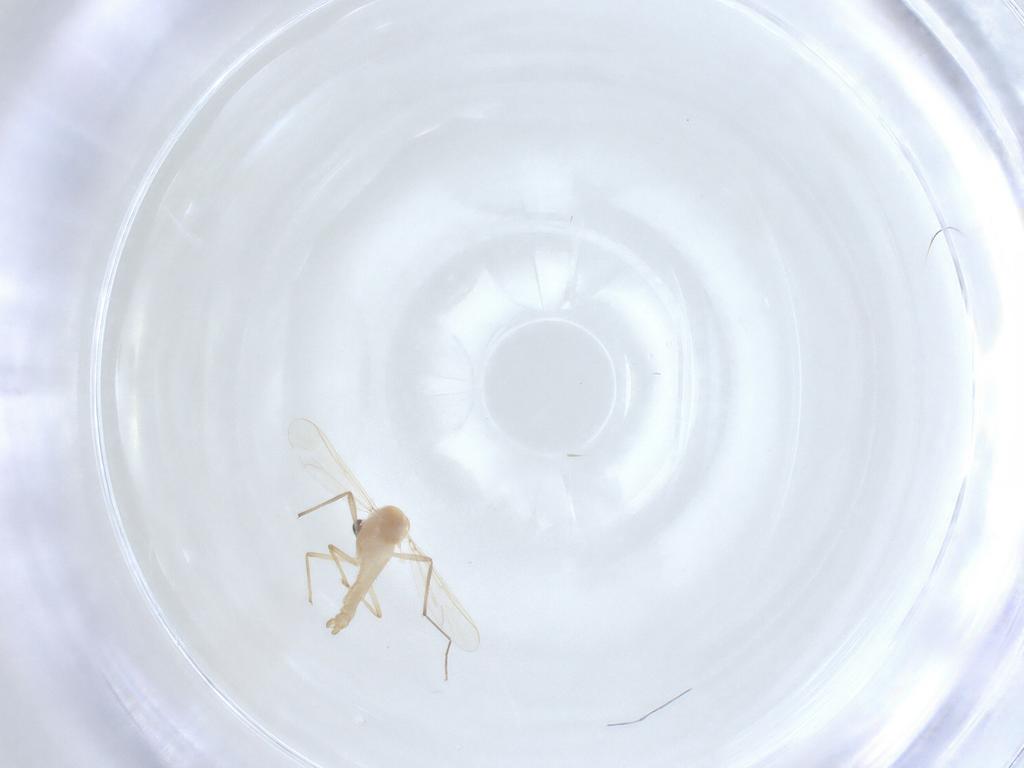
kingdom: Animalia
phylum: Arthropoda
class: Insecta
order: Diptera
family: Chironomidae
